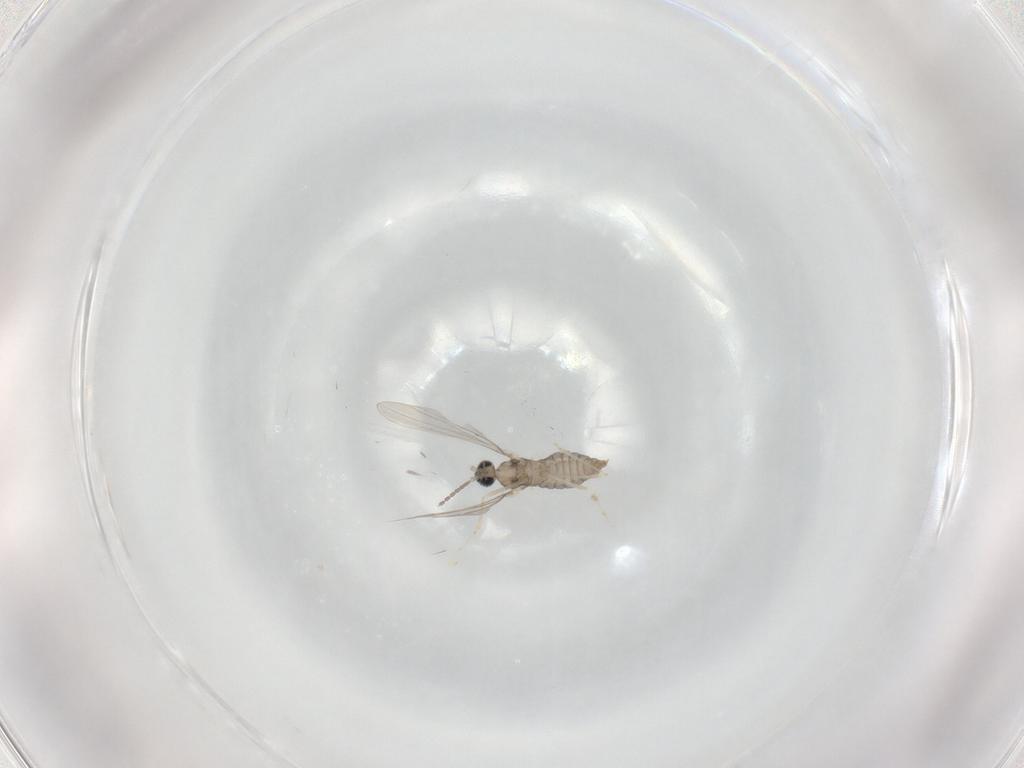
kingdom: Animalia
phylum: Arthropoda
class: Insecta
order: Diptera
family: Cecidomyiidae
